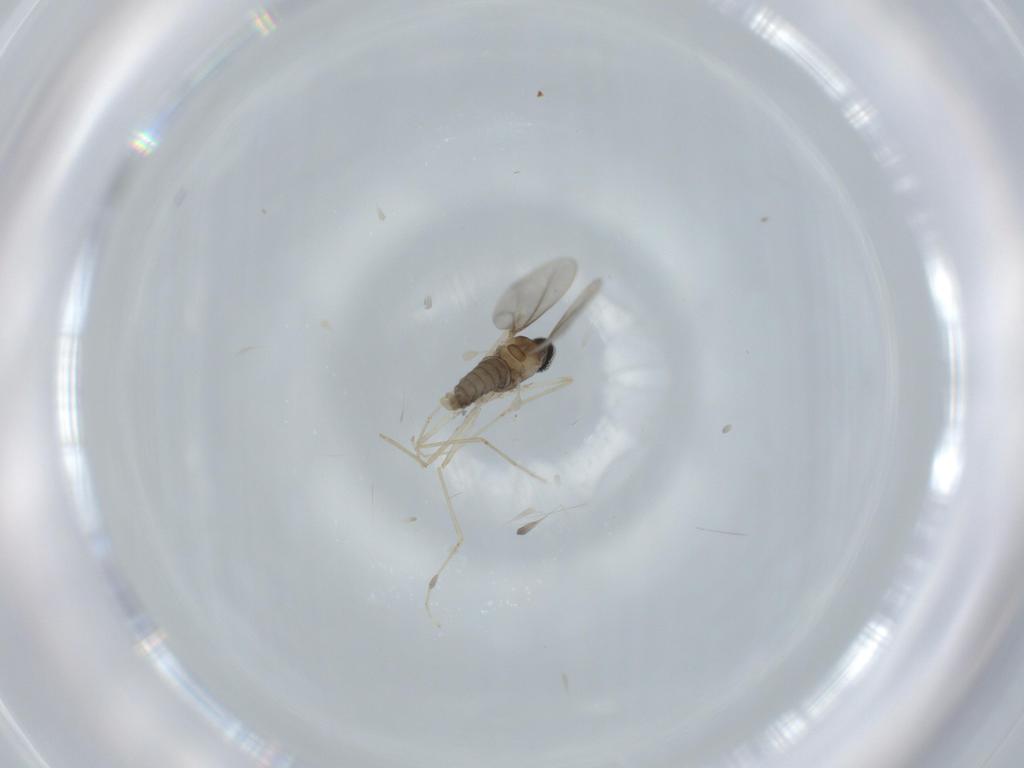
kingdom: Animalia
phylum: Arthropoda
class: Insecta
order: Diptera
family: Cecidomyiidae
